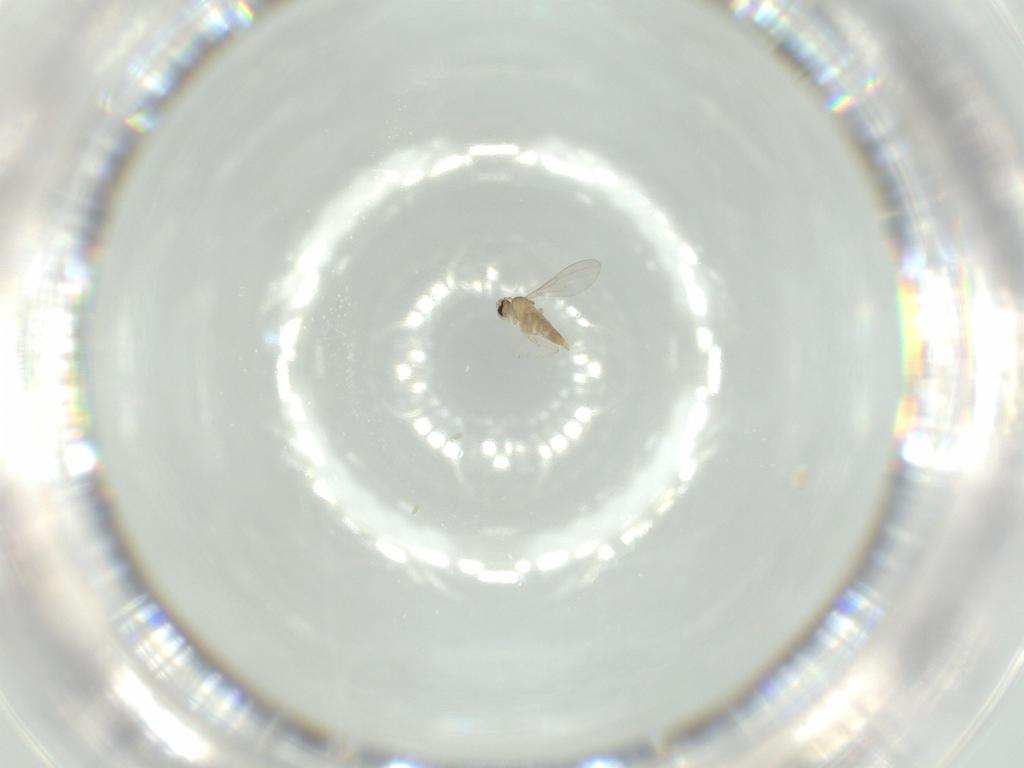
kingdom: Animalia
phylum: Arthropoda
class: Insecta
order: Diptera
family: Cecidomyiidae
